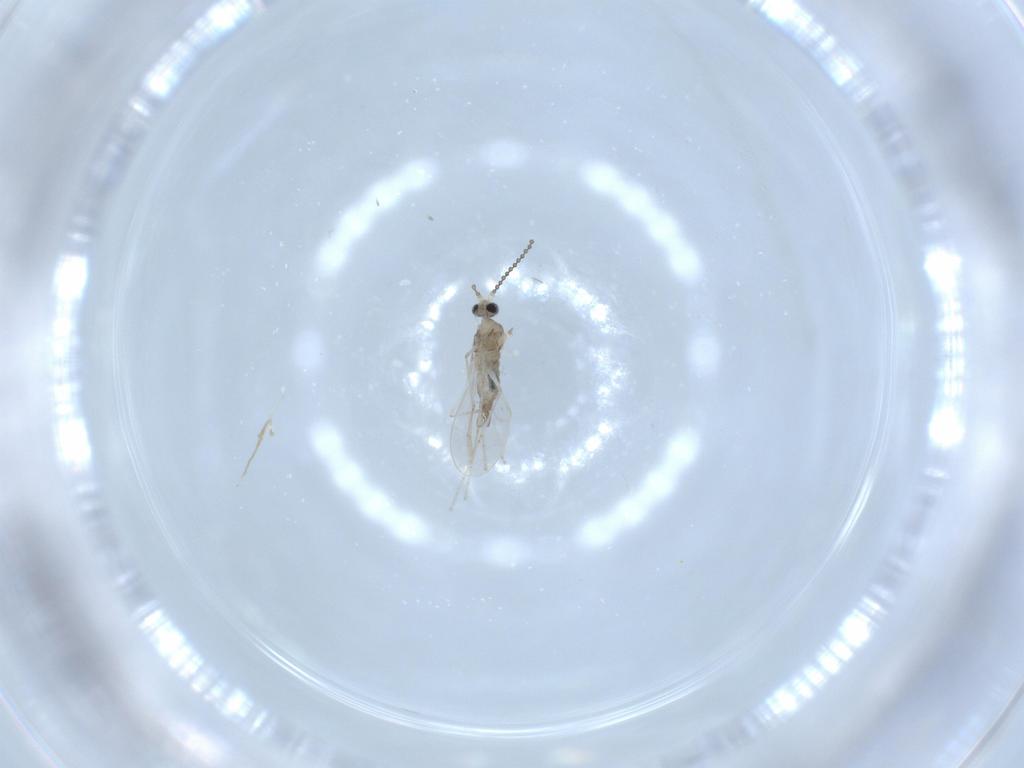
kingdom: Animalia
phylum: Arthropoda
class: Insecta
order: Diptera
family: Cecidomyiidae
